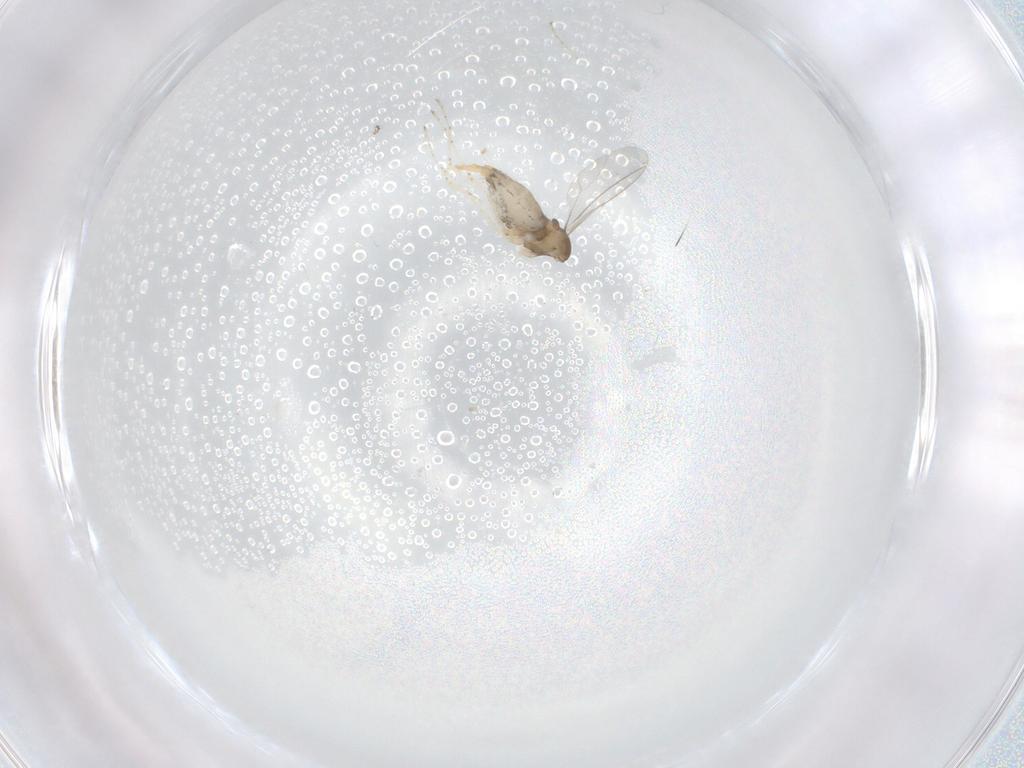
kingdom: Animalia
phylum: Arthropoda
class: Insecta
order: Diptera
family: Cecidomyiidae
